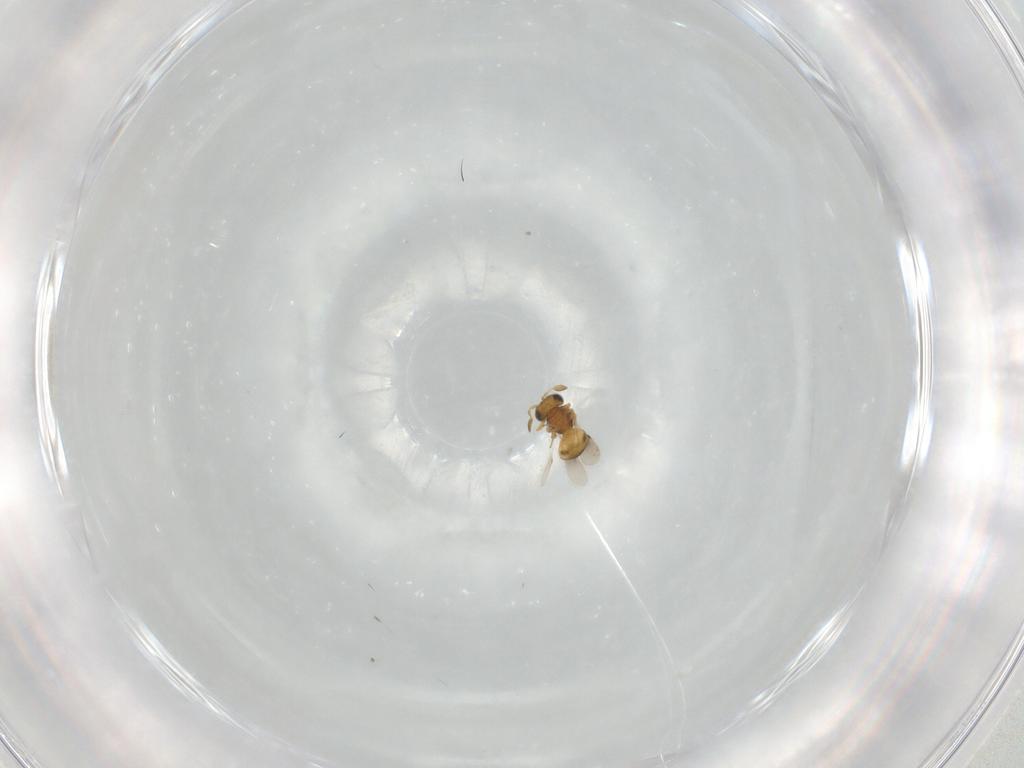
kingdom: Animalia
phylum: Arthropoda
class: Insecta
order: Hymenoptera
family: Scelionidae
